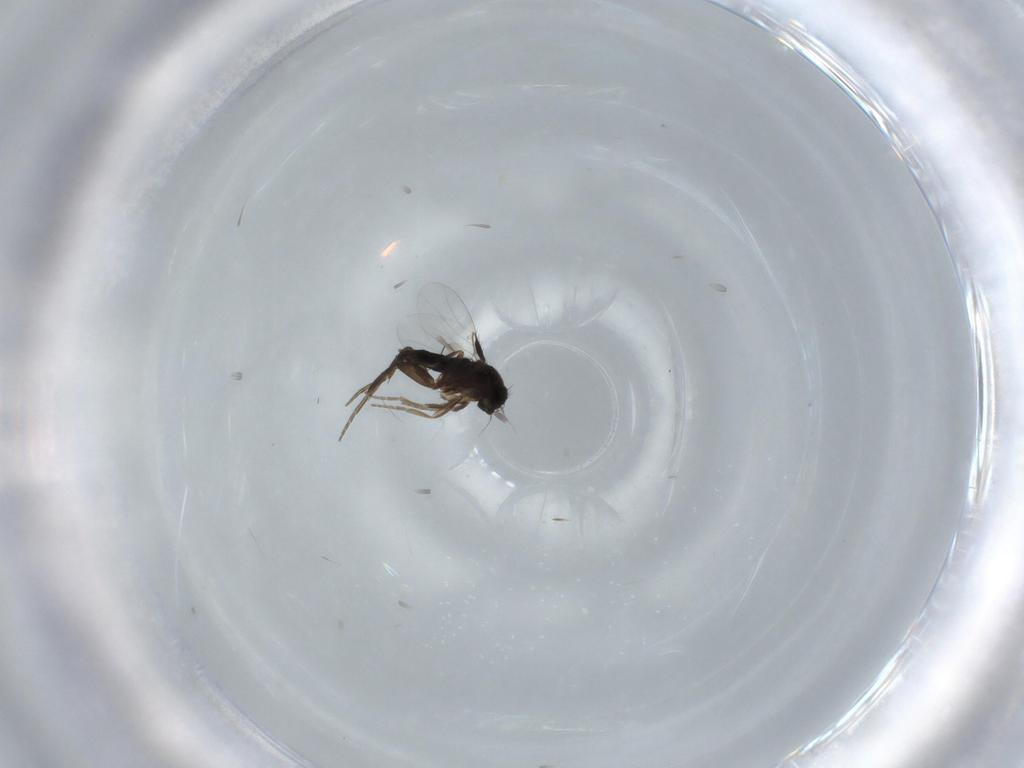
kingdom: Animalia
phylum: Arthropoda
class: Insecta
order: Diptera
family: Phoridae
